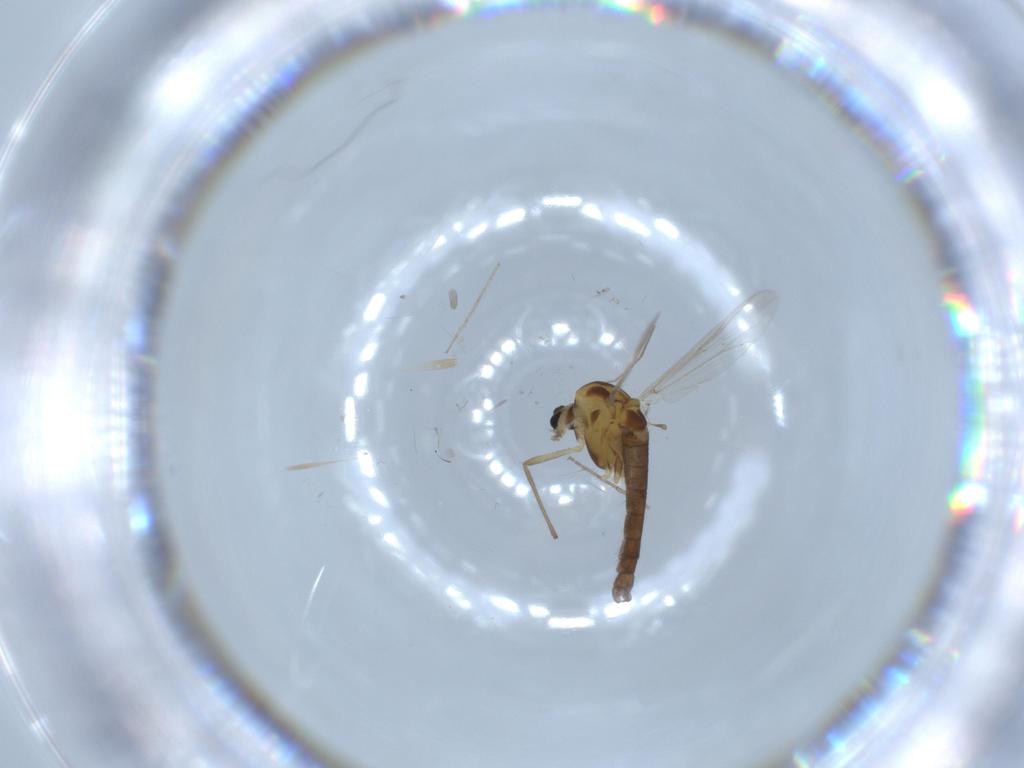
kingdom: Animalia
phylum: Arthropoda
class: Insecta
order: Diptera
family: Chironomidae
